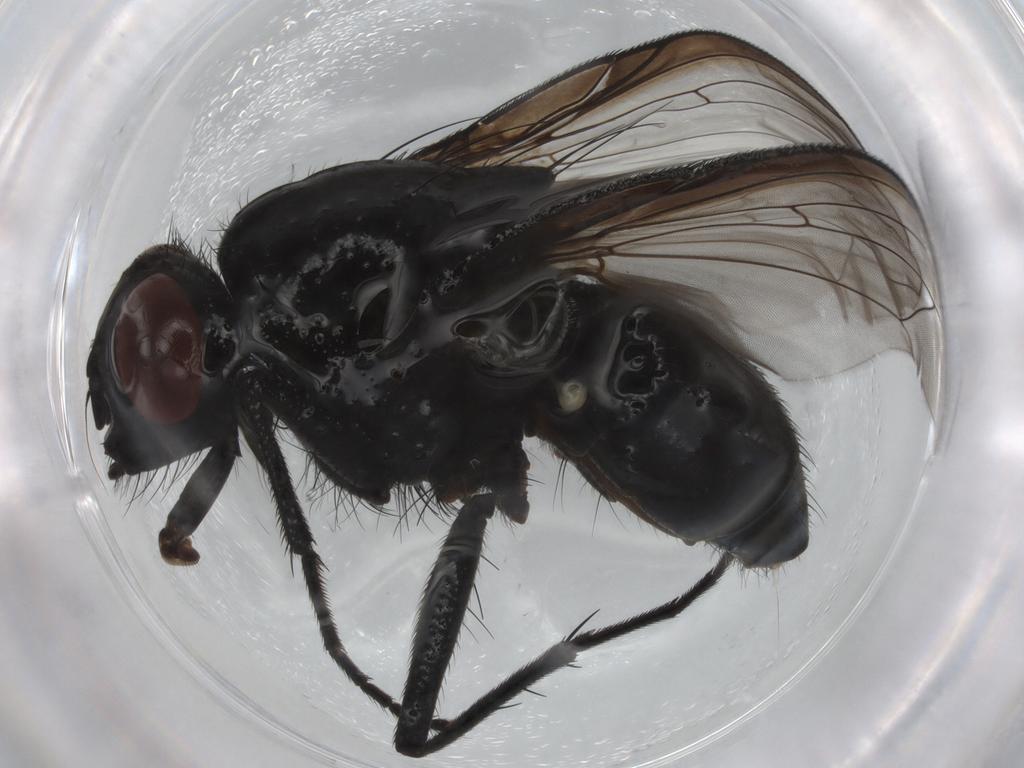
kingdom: Animalia
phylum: Arthropoda
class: Insecta
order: Diptera
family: Muscidae
